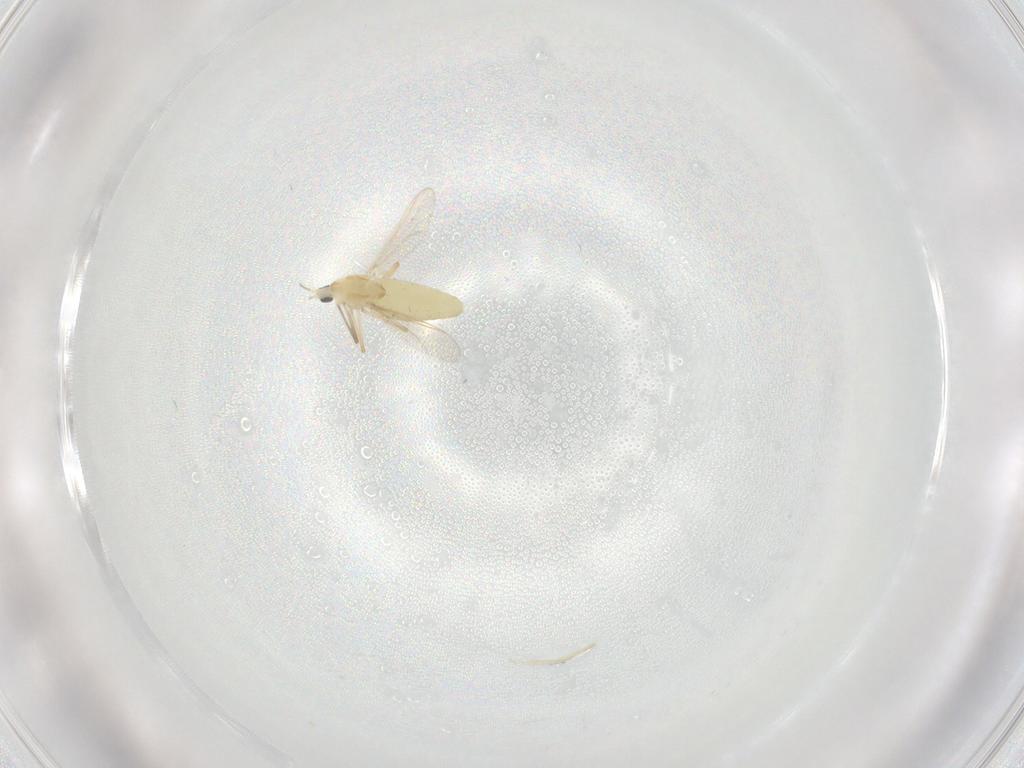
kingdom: Animalia
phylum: Arthropoda
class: Insecta
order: Diptera
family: Chironomidae
